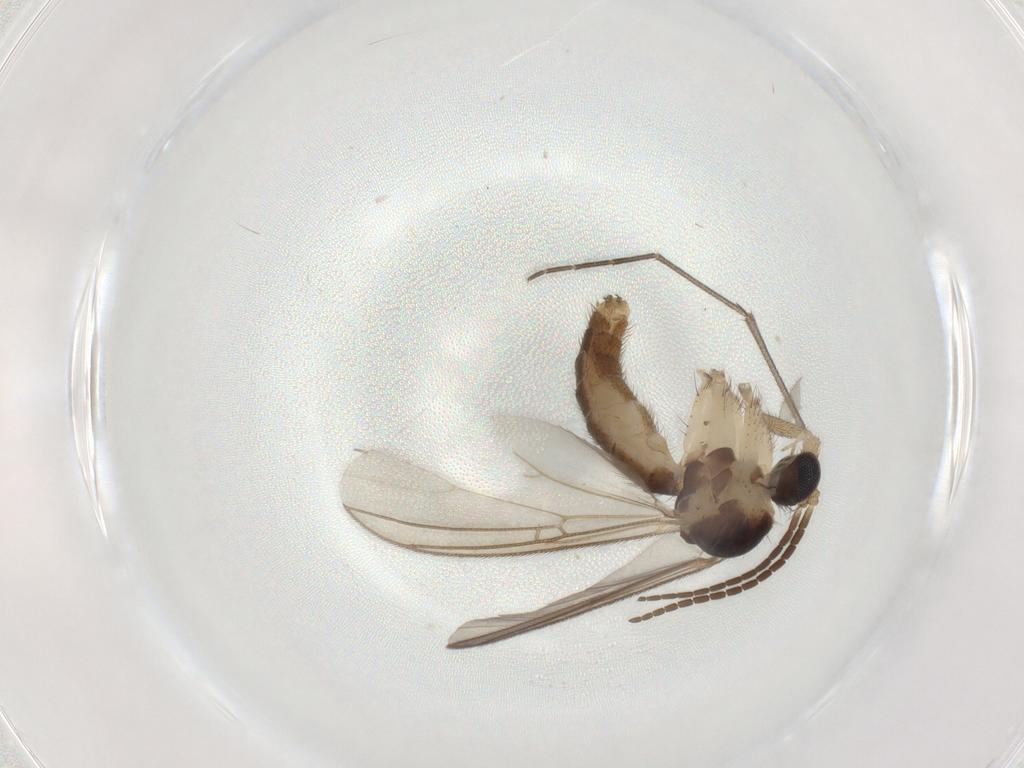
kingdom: Animalia
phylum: Arthropoda
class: Insecta
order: Diptera
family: Mycetophilidae
